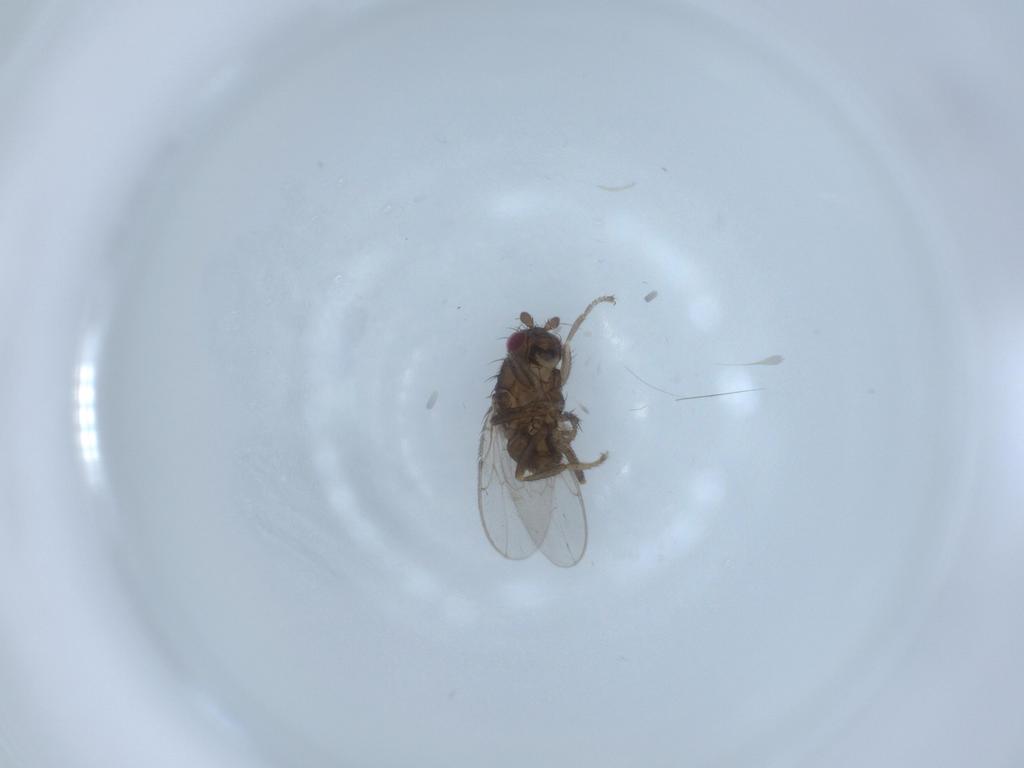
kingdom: Animalia
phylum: Arthropoda
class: Insecta
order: Diptera
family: Sphaeroceridae
